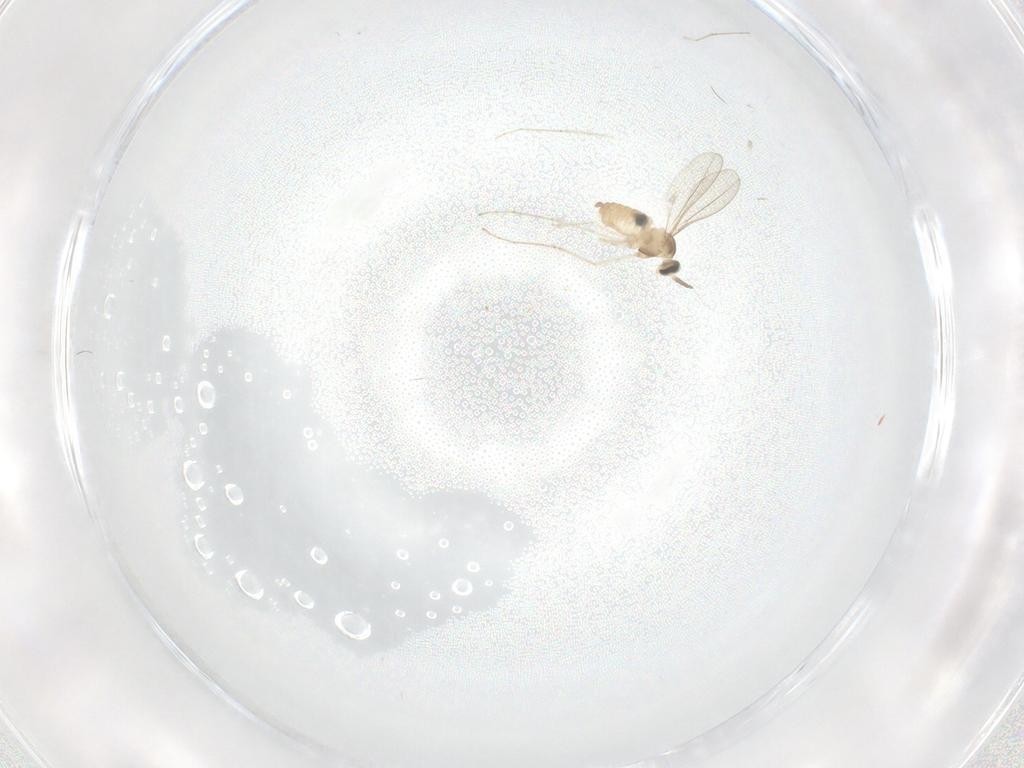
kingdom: Animalia
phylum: Arthropoda
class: Insecta
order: Diptera
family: Cecidomyiidae
